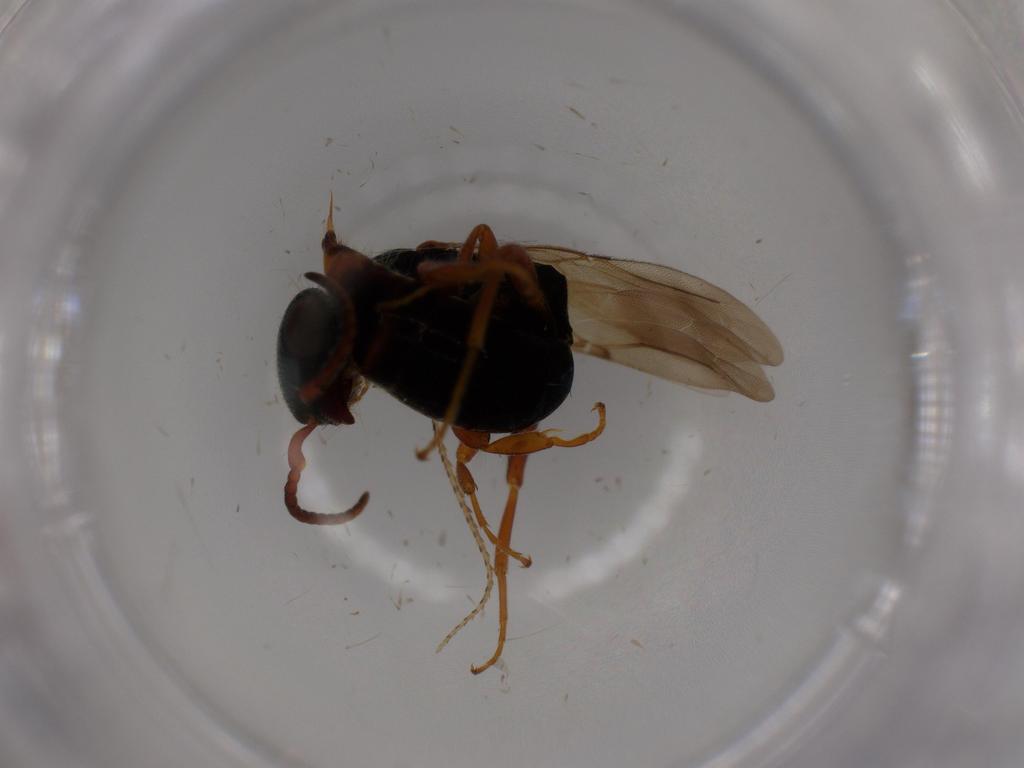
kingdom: Animalia
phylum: Arthropoda
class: Insecta
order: Hymenoptera
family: Bethylidae
